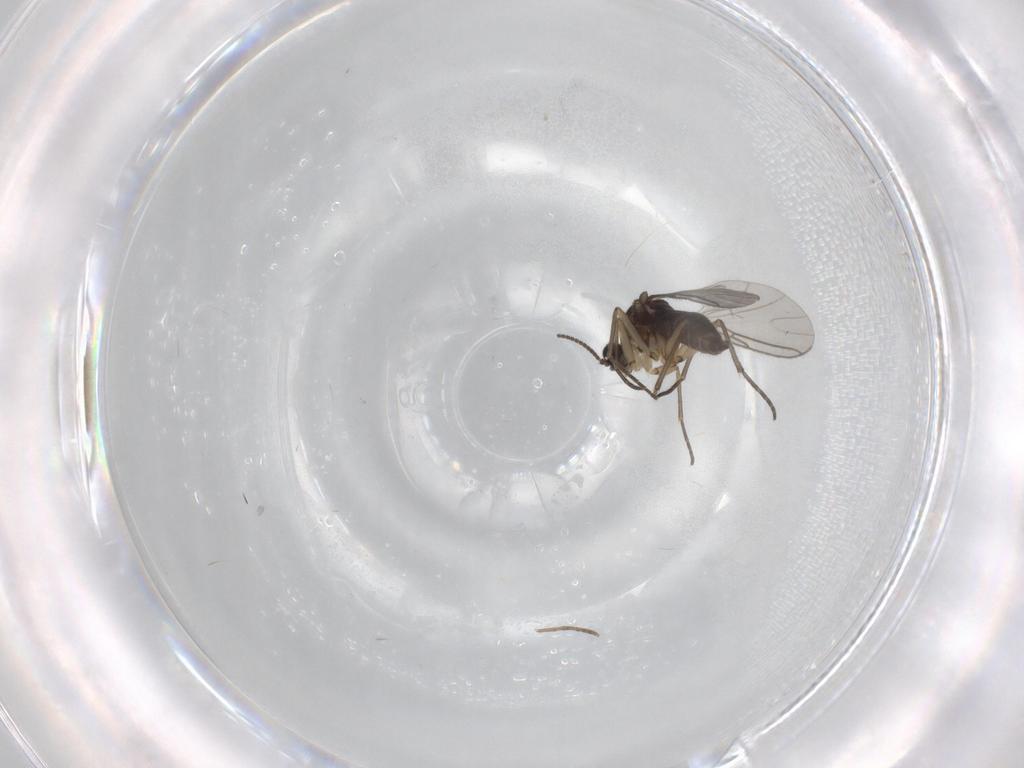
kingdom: Animalia
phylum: Arthropoda
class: Insecta
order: Diptera
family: Sciaridae
